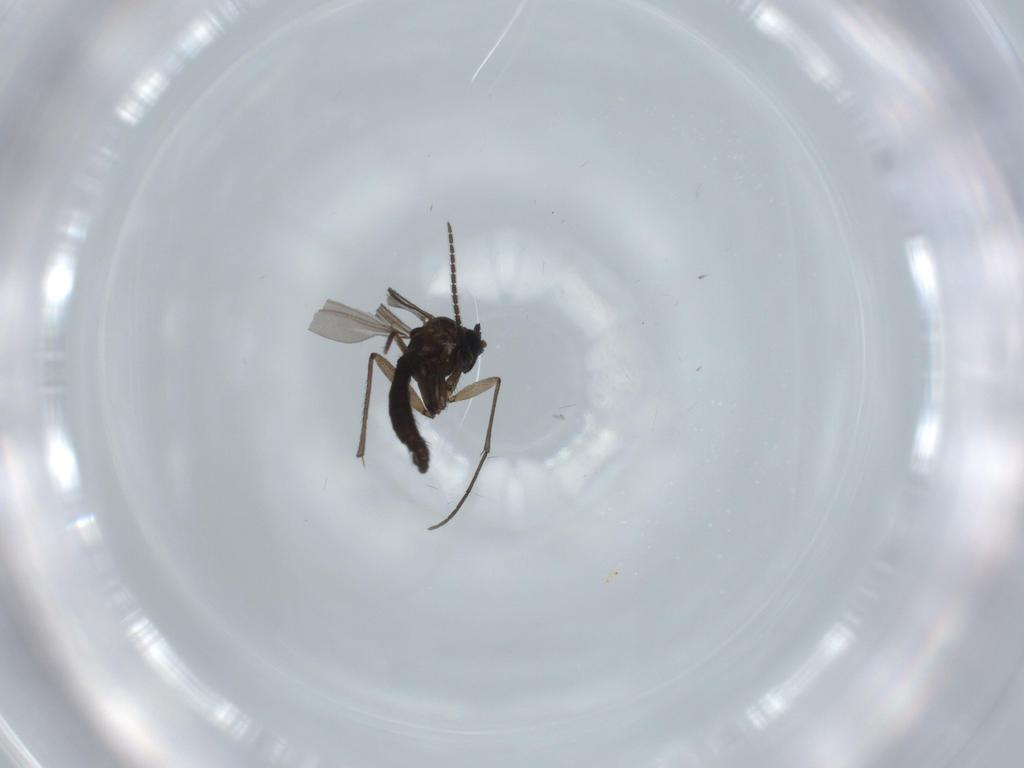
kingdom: Animalia
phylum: Arthropoda
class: Insecta
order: Diptera
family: Sciaridae
